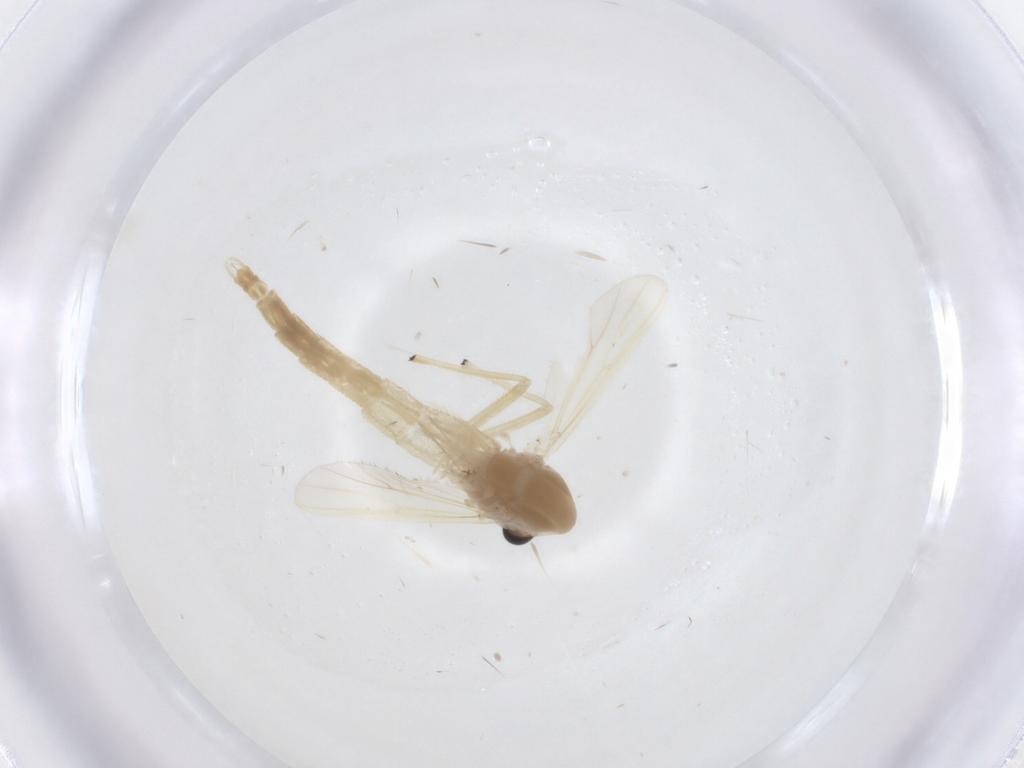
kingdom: Animalia
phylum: Arthropoda
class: Insecta
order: Diptera
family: Chironomidae
